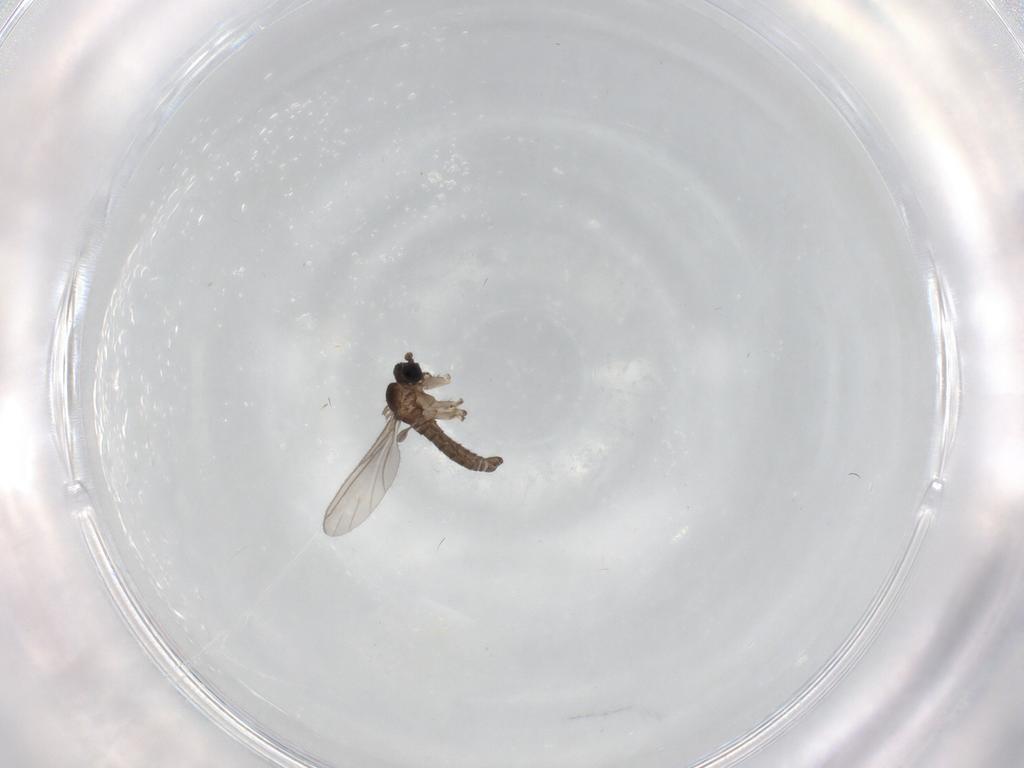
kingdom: Animalia
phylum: Arthropoda
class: Insecta
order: Diptera
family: Sciaridae
